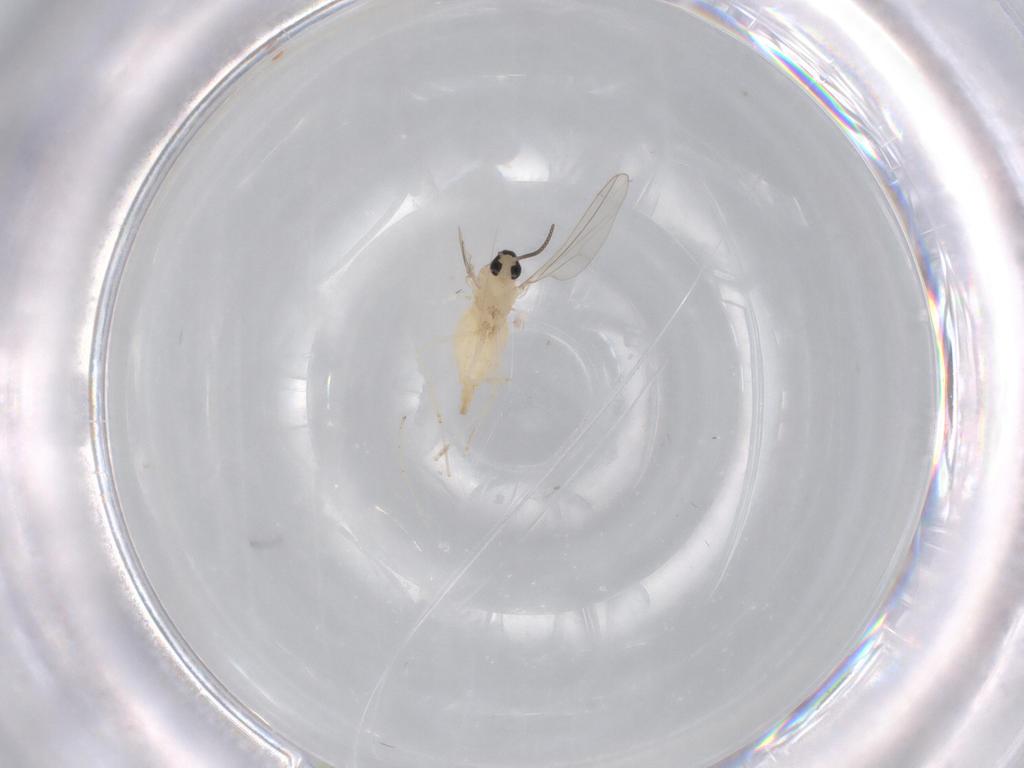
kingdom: Animalia
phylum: Arthropoda
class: Insecta
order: Diptera
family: Cecidomyiidae
